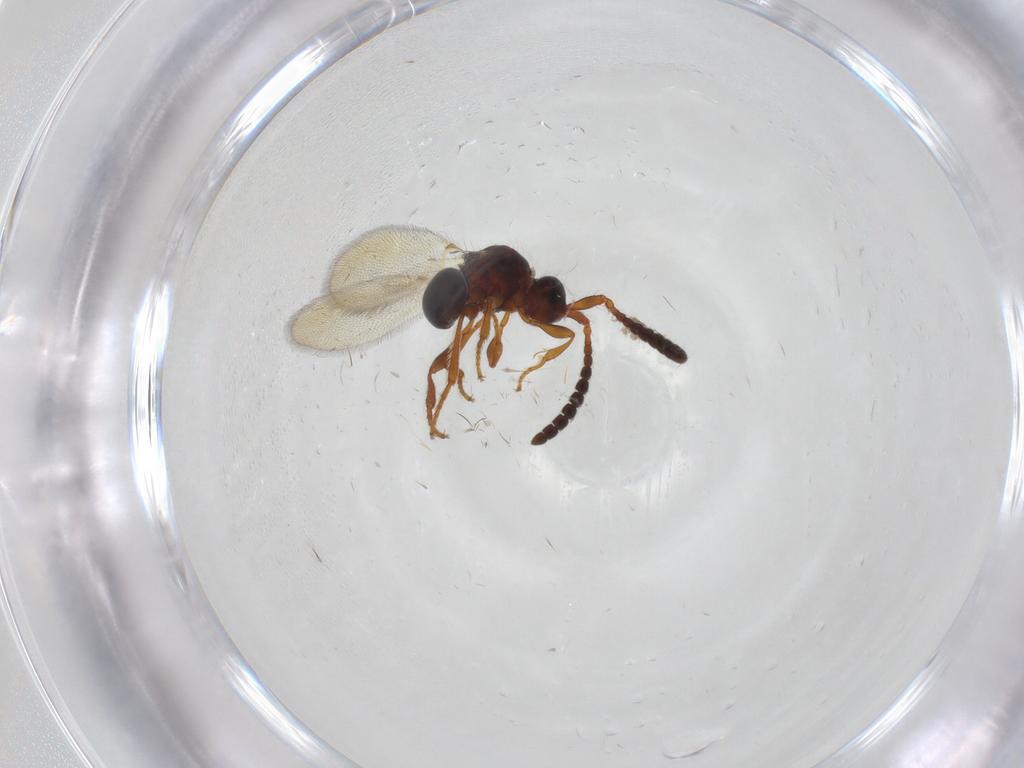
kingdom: Animalia
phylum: Arthropoda
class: Insecta
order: Hymenoptera
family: Diapriidae
